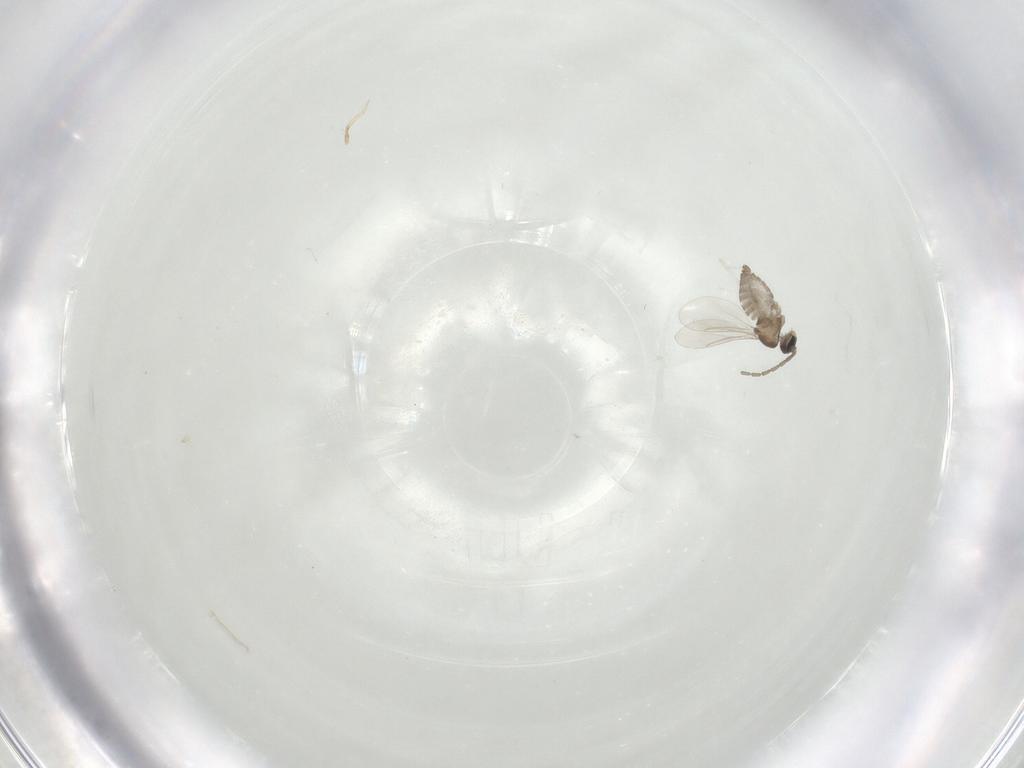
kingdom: Animalia
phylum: Arthropoda
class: Insecta
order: Diptera
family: Cecidomyiidae
